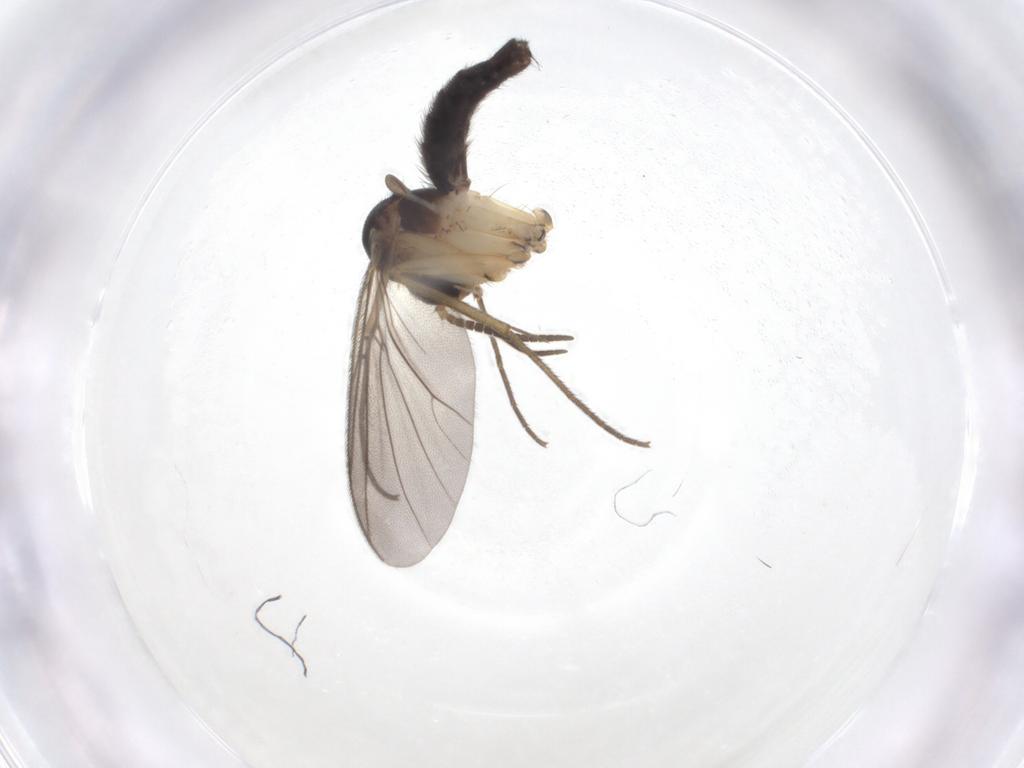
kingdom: Animalia
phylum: Arthropoda
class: Insecta
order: Diptera
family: Mycetophilidae
